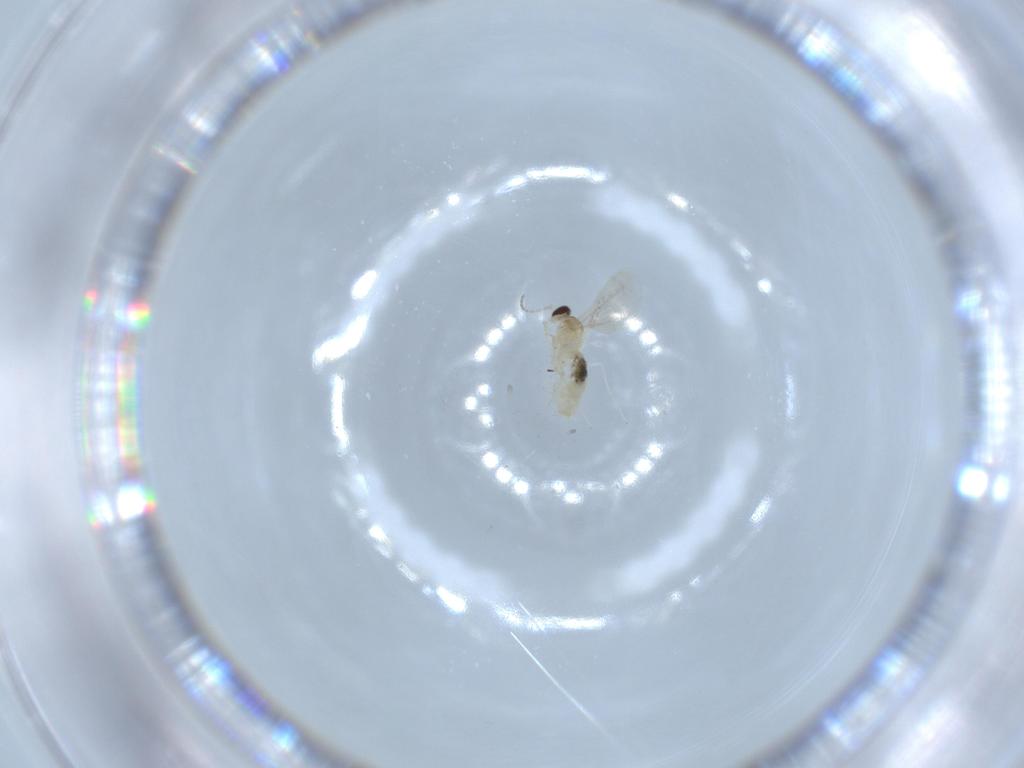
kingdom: Animalia
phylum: Arthropoda
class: Insecta
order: Diptera
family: Cecidomyiidae
